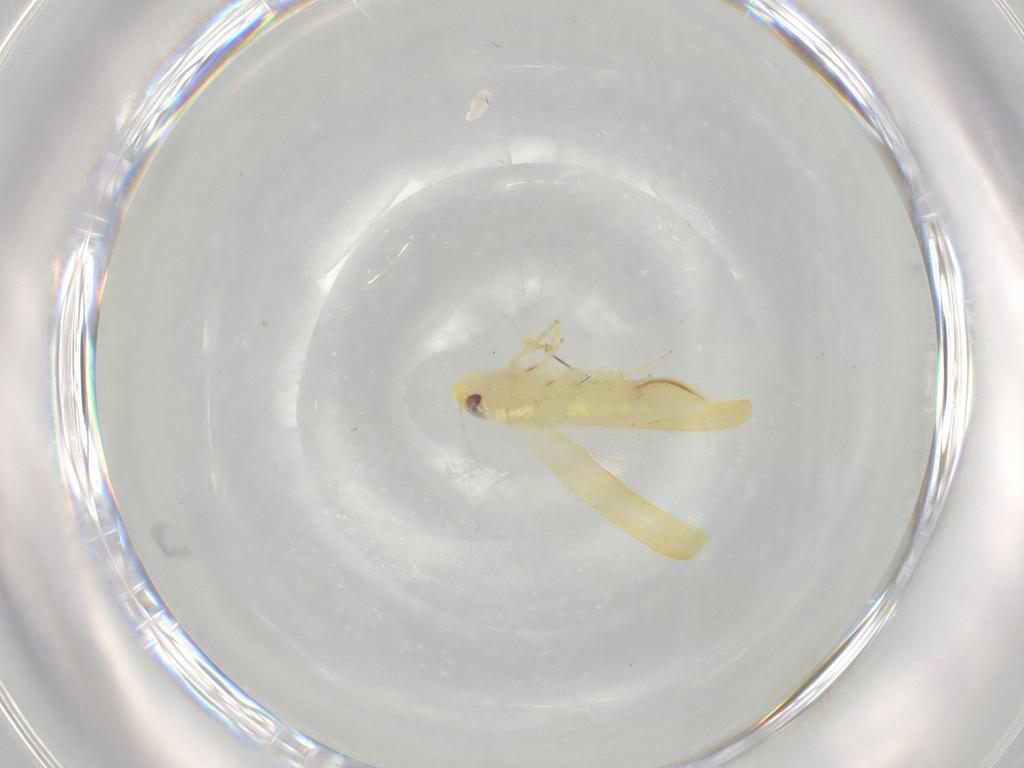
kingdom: Animalia
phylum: Arthropoda
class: Insecta
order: Hemiptera
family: Cicadellidae
